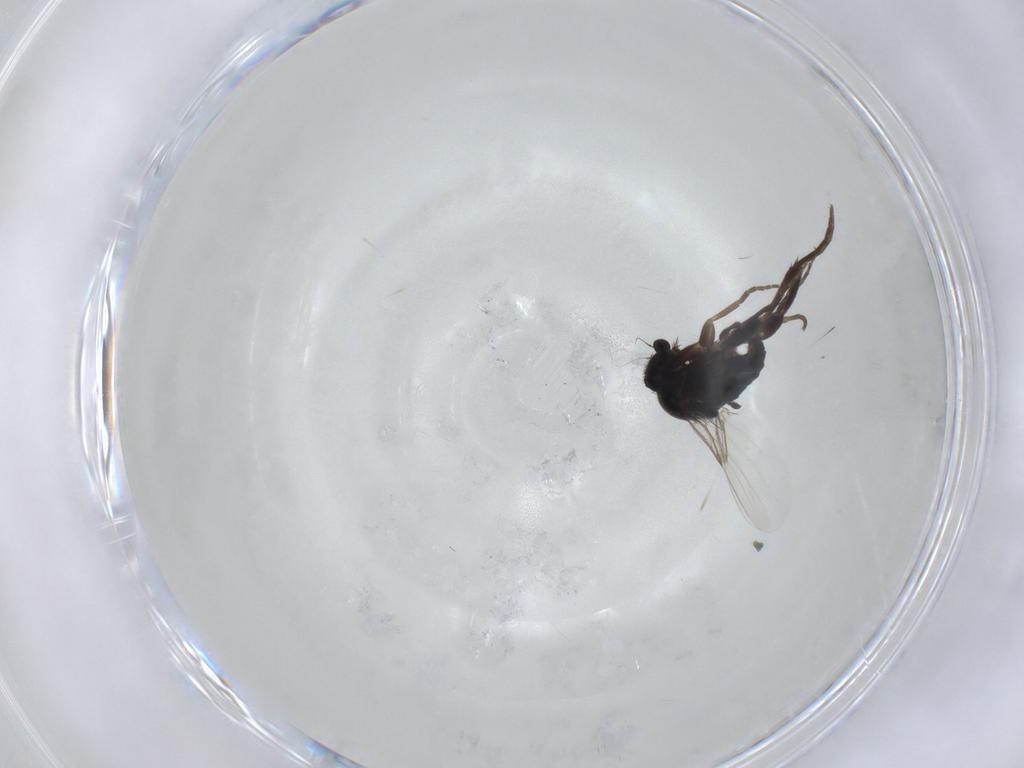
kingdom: Animalia
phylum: Arthropoda
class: Insecta
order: Diptera
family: Phoridae
